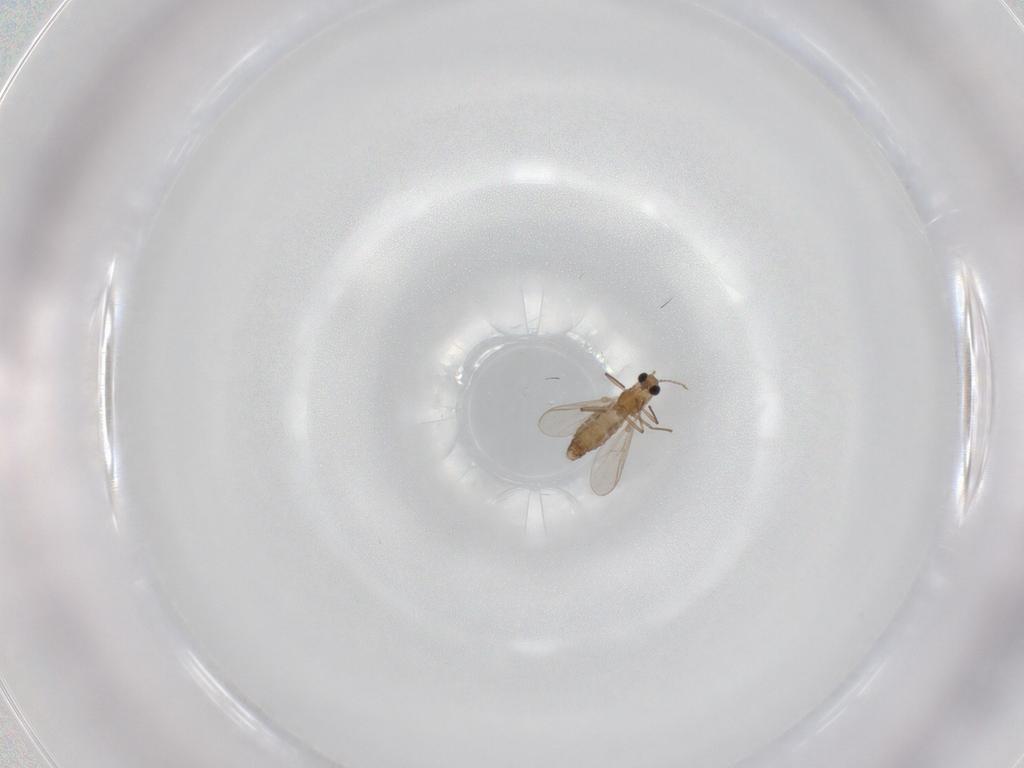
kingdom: Animalia
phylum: Arthropoda
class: Insecta
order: Diptera
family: Chironomidae
